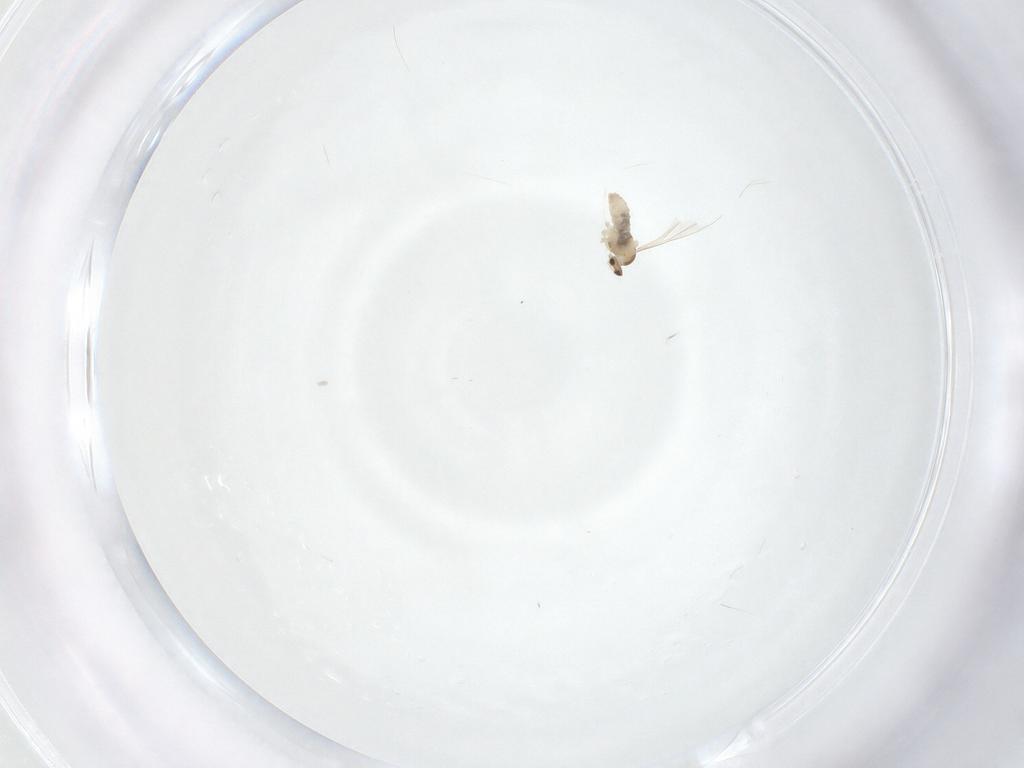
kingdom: Animalia
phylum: Arthropoda
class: Insecta
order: Diptera
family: Cecidomyiidae
